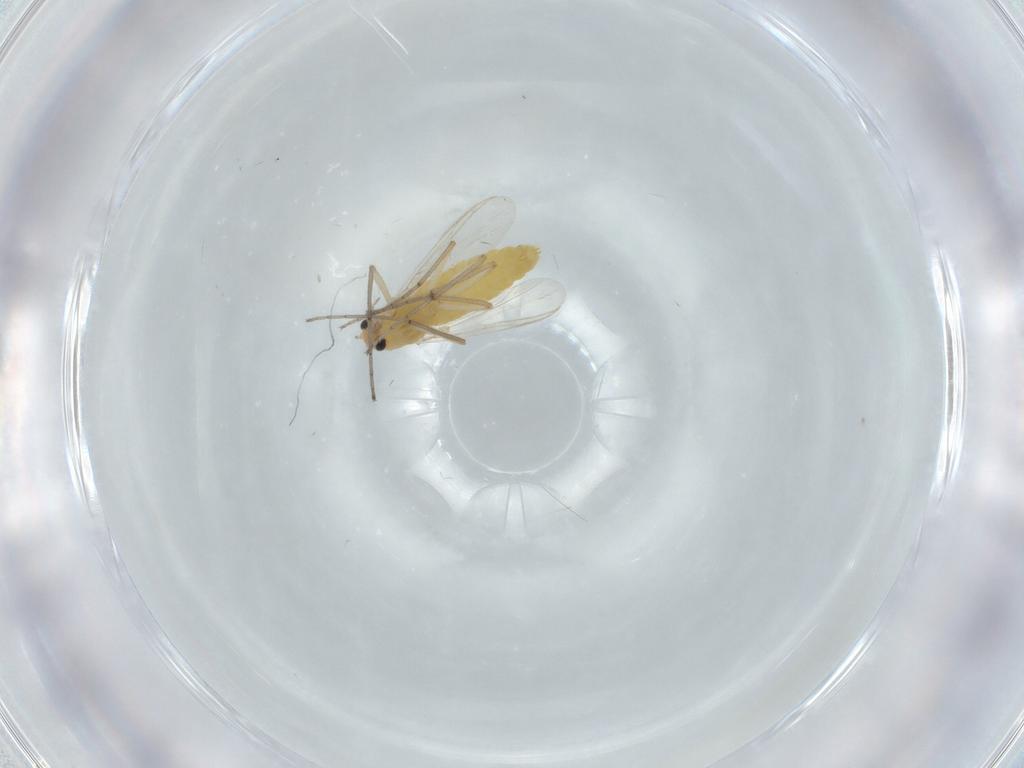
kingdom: Animalia
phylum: Arthropoda
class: Insecta
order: Diptera
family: Chironomidae
